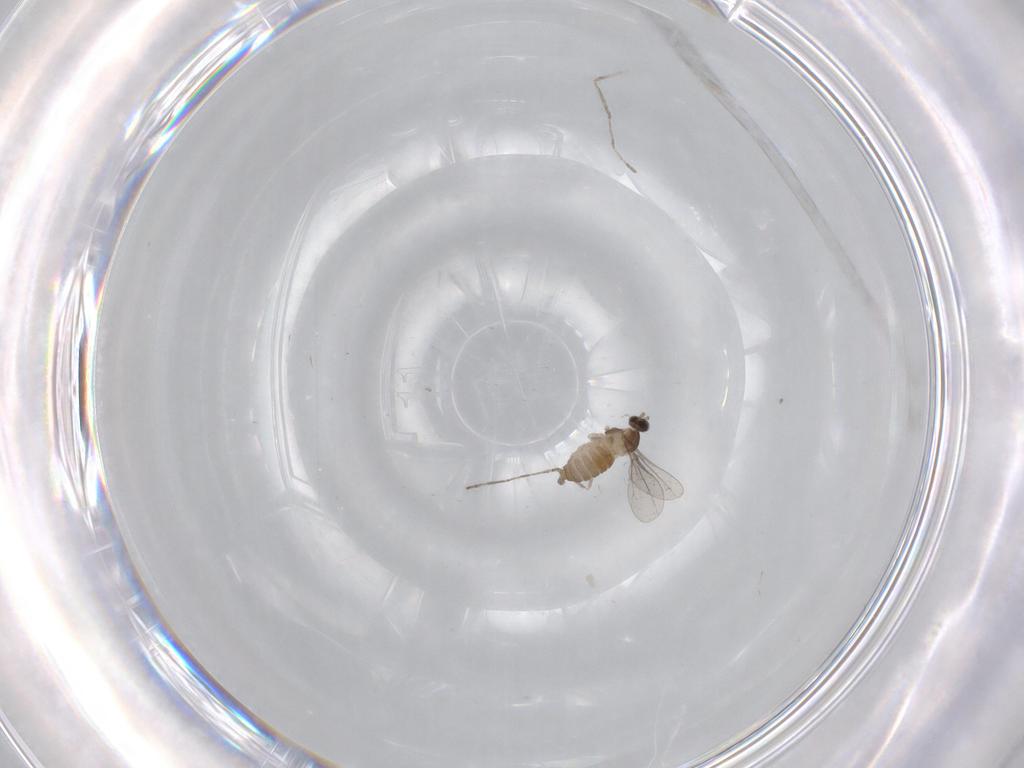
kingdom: Animalia
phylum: Arthropoda
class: Insecta
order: Diptera
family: Cecidomyiidae
